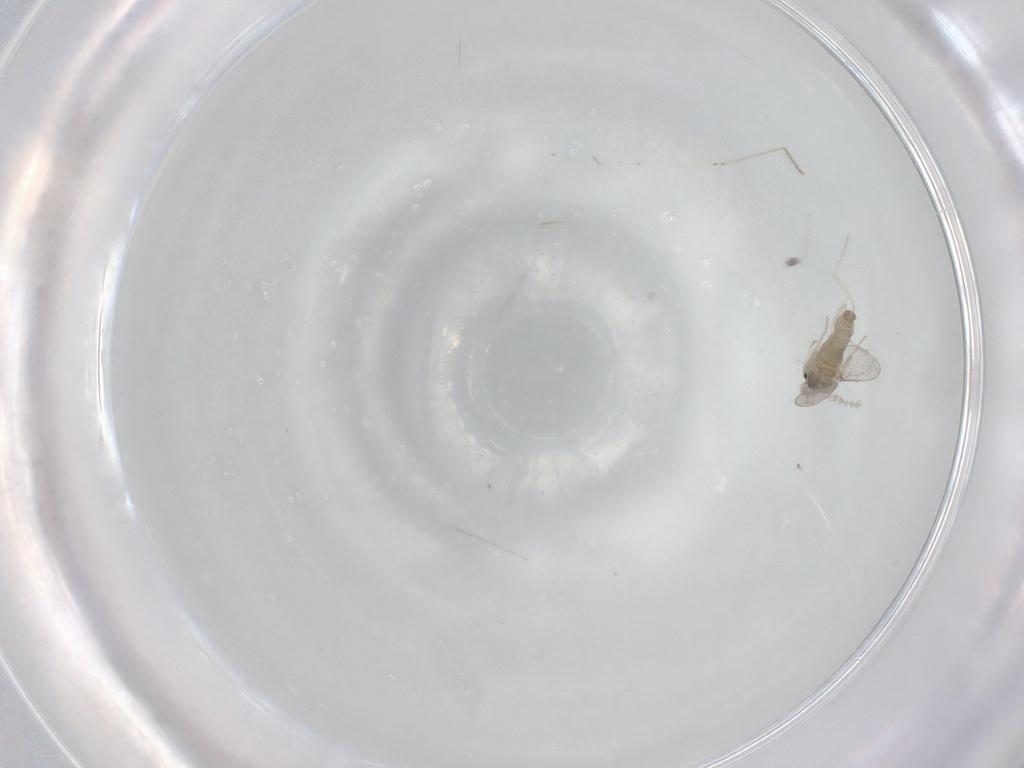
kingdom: Animalia
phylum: Arthropoda
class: Insecta
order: Diptera
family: Cecidomyiidae
